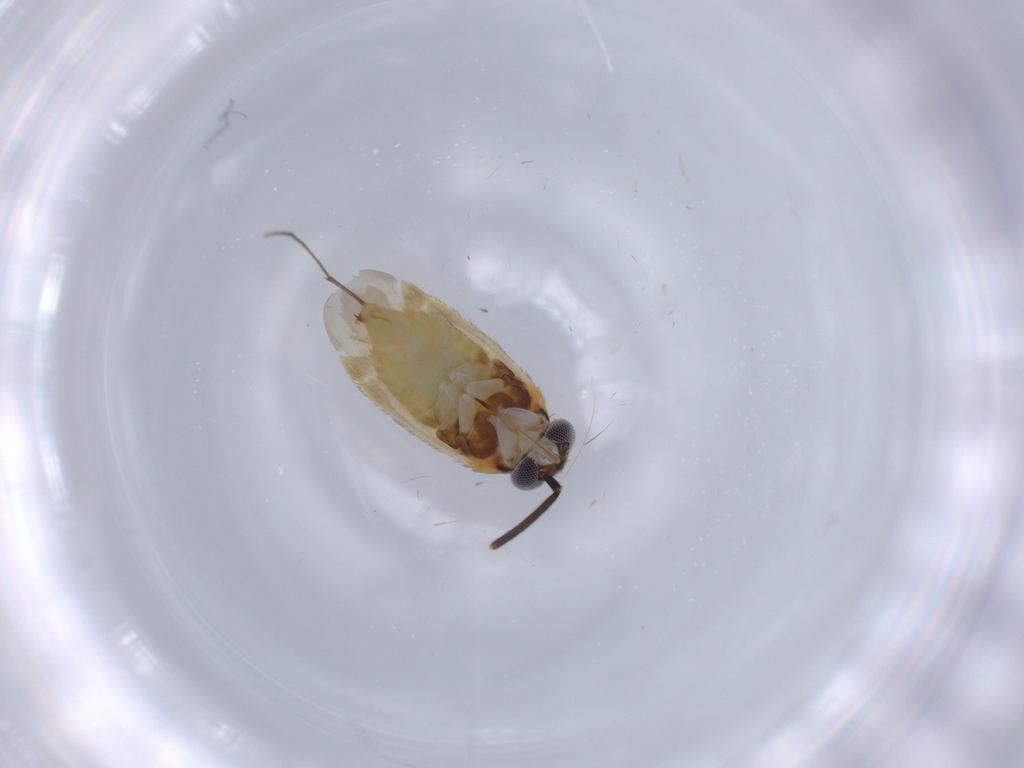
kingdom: Animalia
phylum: Arthropoda
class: Insecta
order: Hemiptera
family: Miridae
